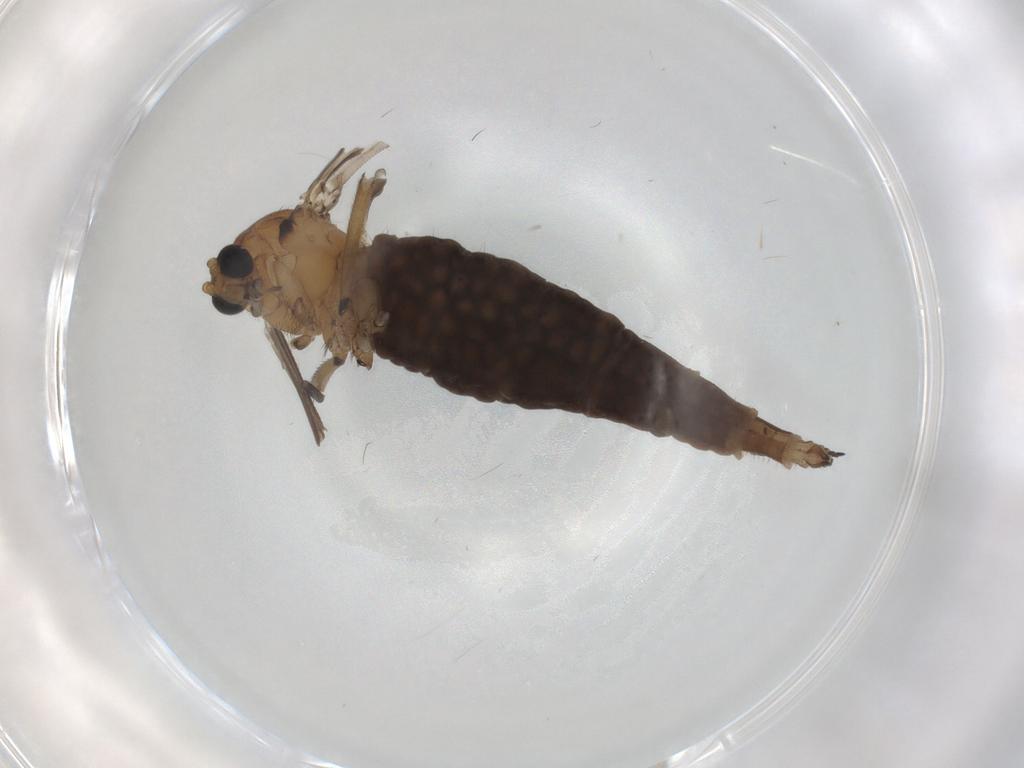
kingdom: Animalia
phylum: Arthropoda
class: Insecta
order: Diptera
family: Sciaridae
